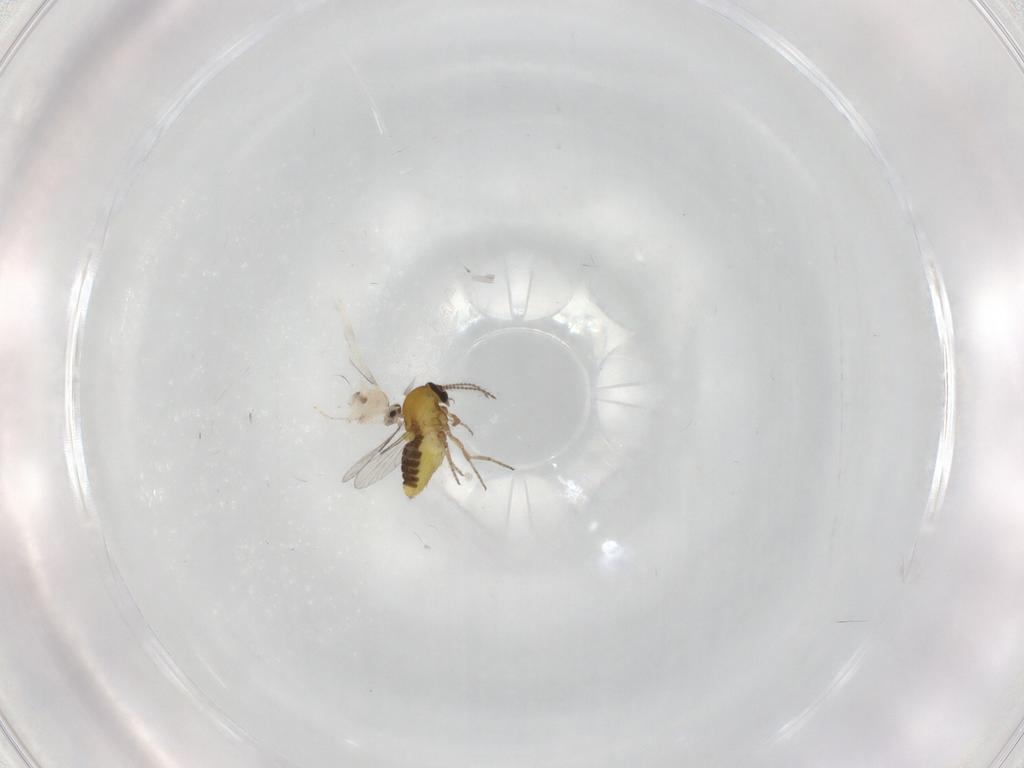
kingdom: Animalia
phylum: Arthropoda
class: Insecta
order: Diptera
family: Cecidomyiidae
